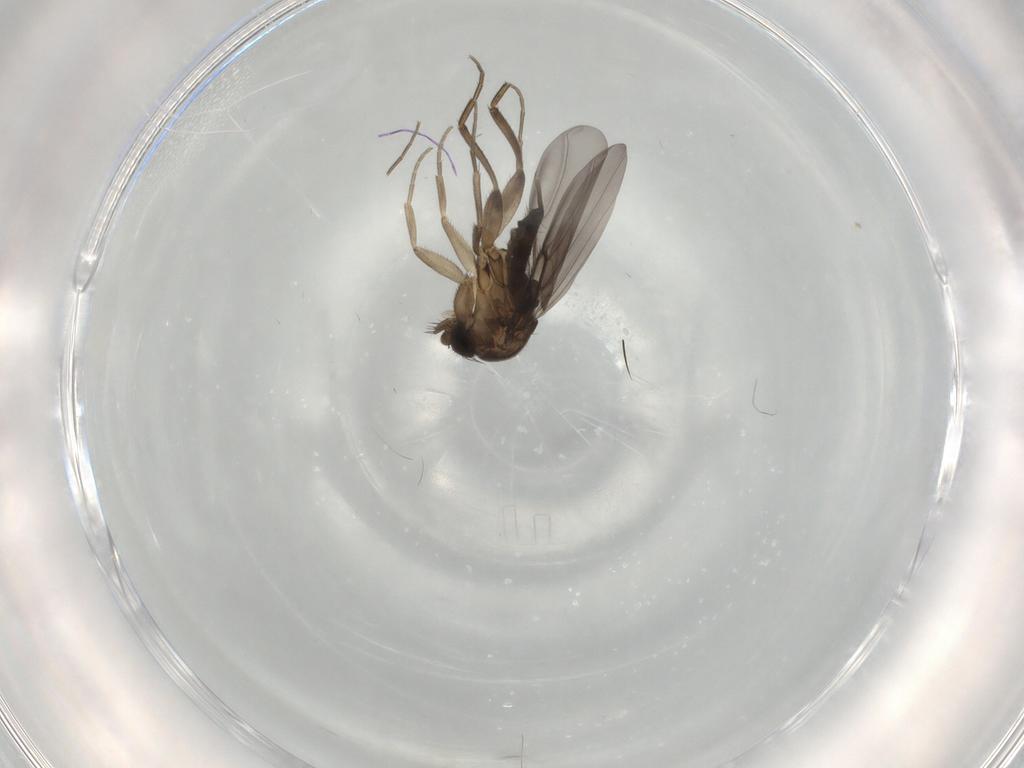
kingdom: Animalia
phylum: Arthropoda
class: Insecta
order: Diptera
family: Phoridae
